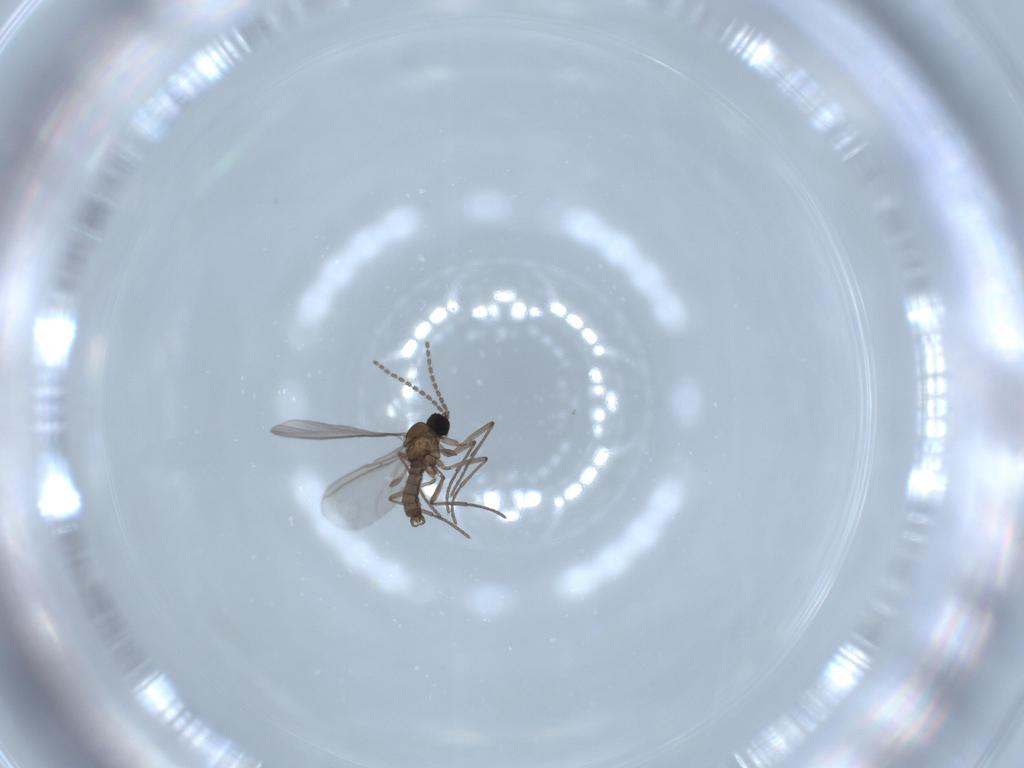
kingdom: Animalia
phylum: Arthropoda
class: Insecta
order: Diptera
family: Sciaridae
